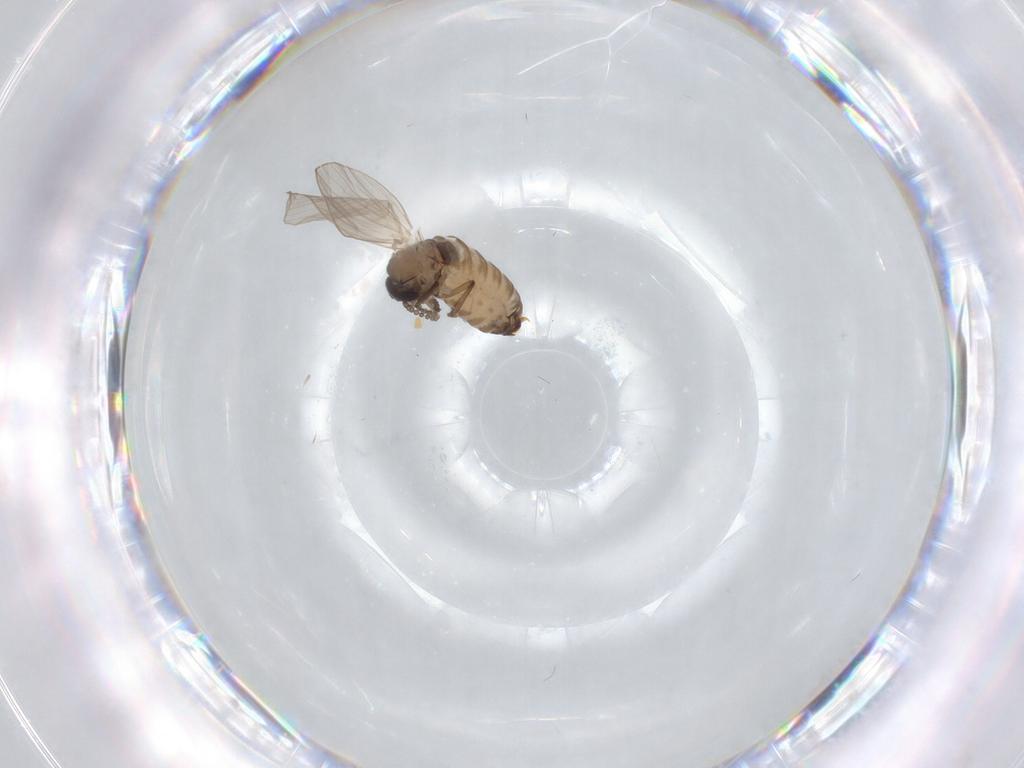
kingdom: Animalia
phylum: Arthropoda
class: Insecta
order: Diptera
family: Psychodidae
